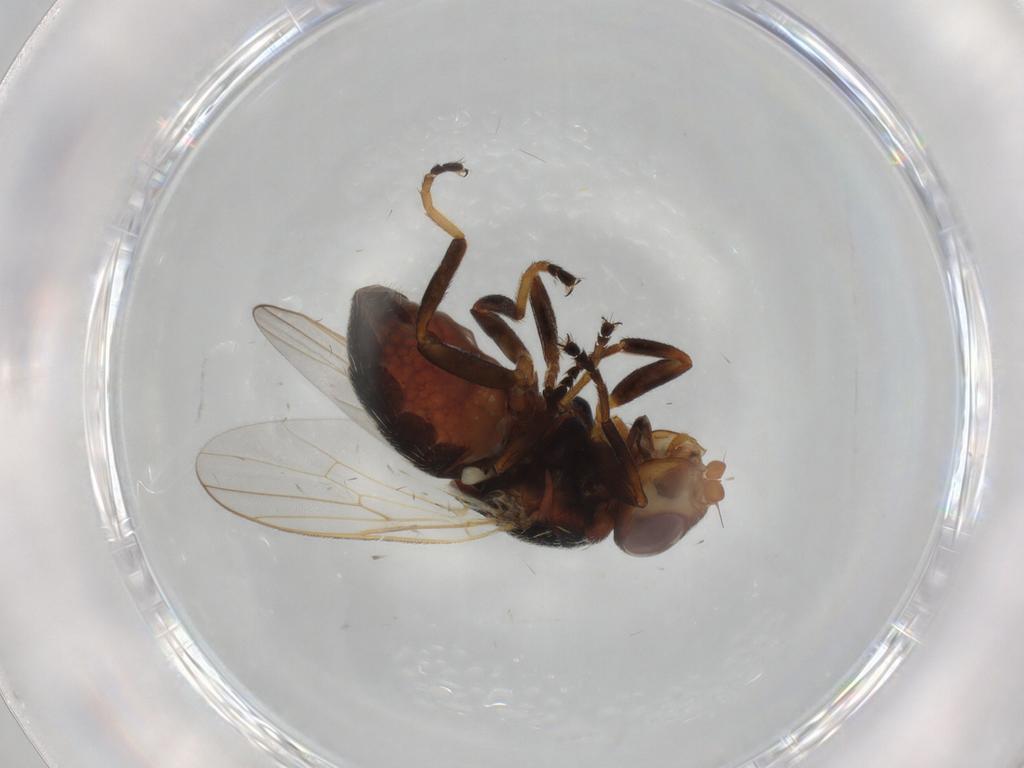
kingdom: Animalia
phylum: Arthropoda
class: Insecta
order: Diptera
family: Chloropidae
